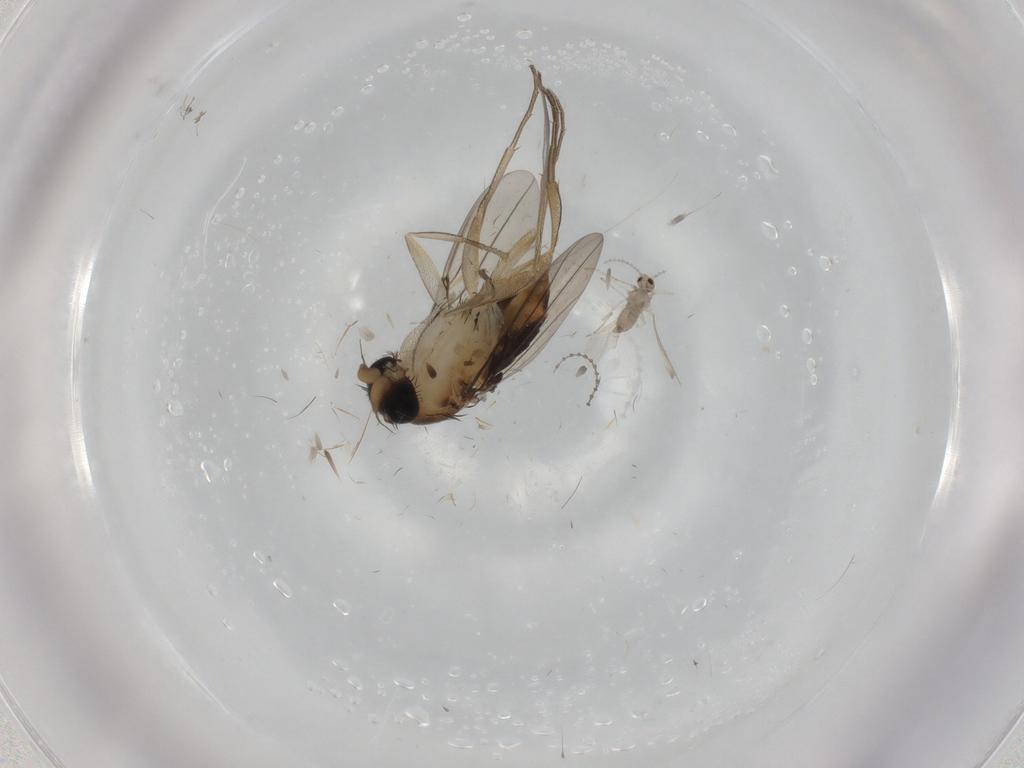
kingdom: Animalia
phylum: Arthropoda
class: Insecta
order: Diptera
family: Phoridae
